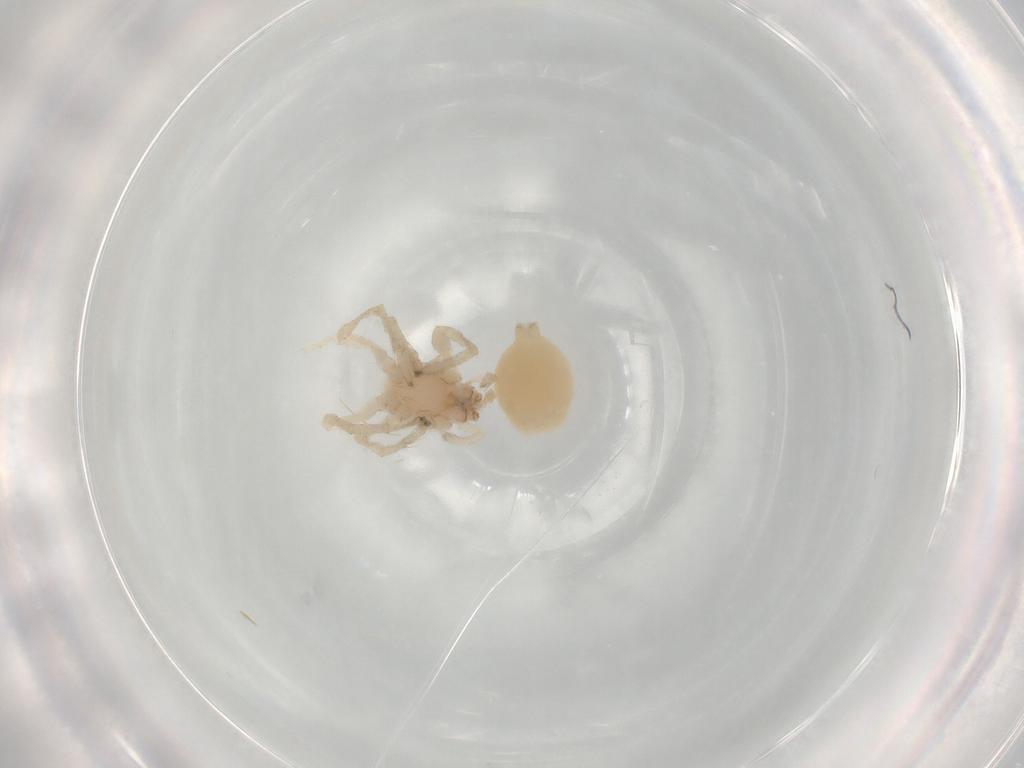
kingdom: Animalia
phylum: Arthropoda
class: Arachnida
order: Araneae
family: Clubionidae
